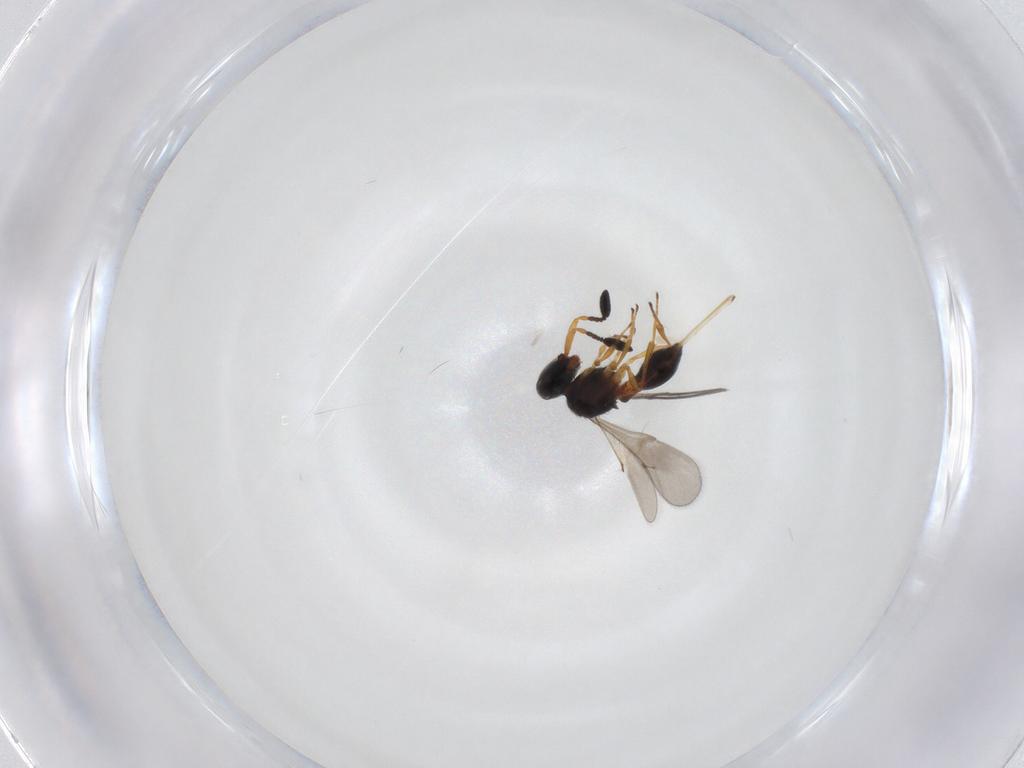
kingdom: Animalia
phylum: Arthropoda
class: Insecta
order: Hymenoptera
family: Scelionidae
